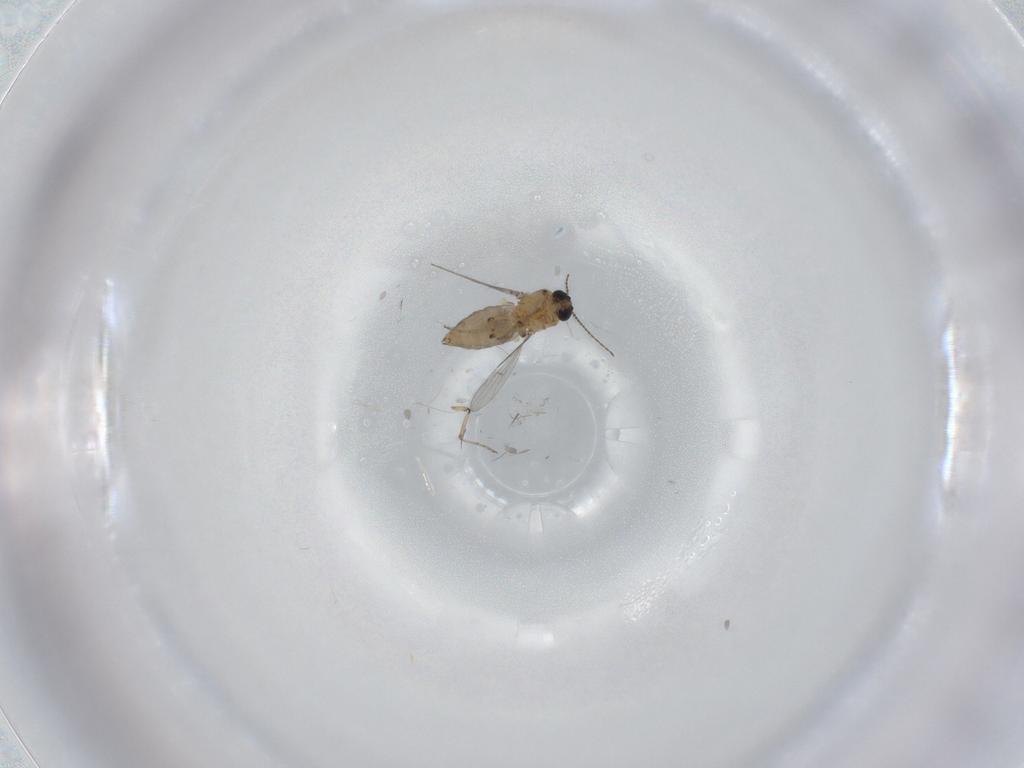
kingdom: Animalia
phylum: Arthropoda
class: Insecta
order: Diptera
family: Ceratopogonidae
